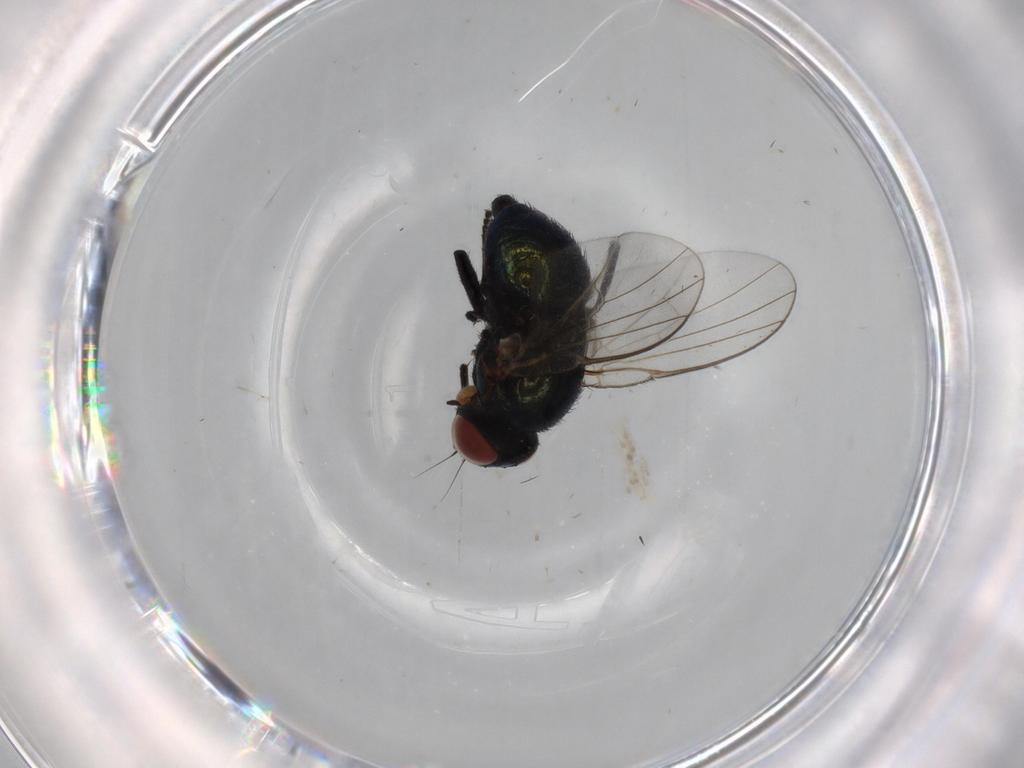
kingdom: Animalia
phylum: Arthropoda
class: Insecta
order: Diptera
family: Agromyzidae
